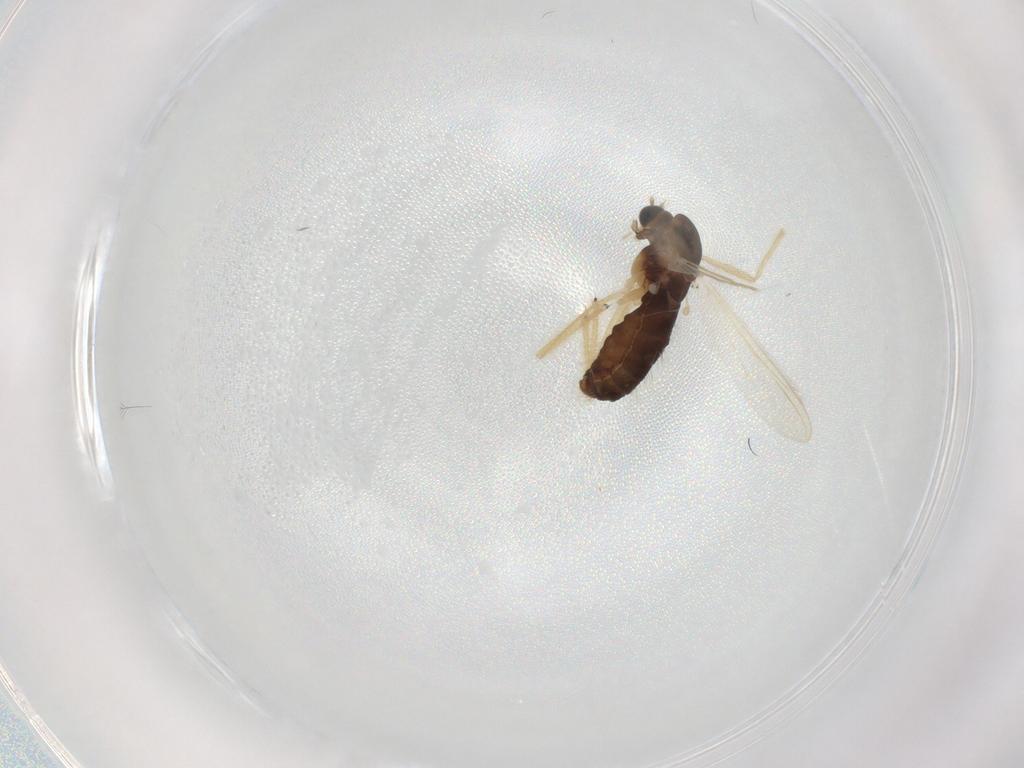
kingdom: Animalia
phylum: Arthropoda
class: Insecta
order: Diptera
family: Chironomidae
